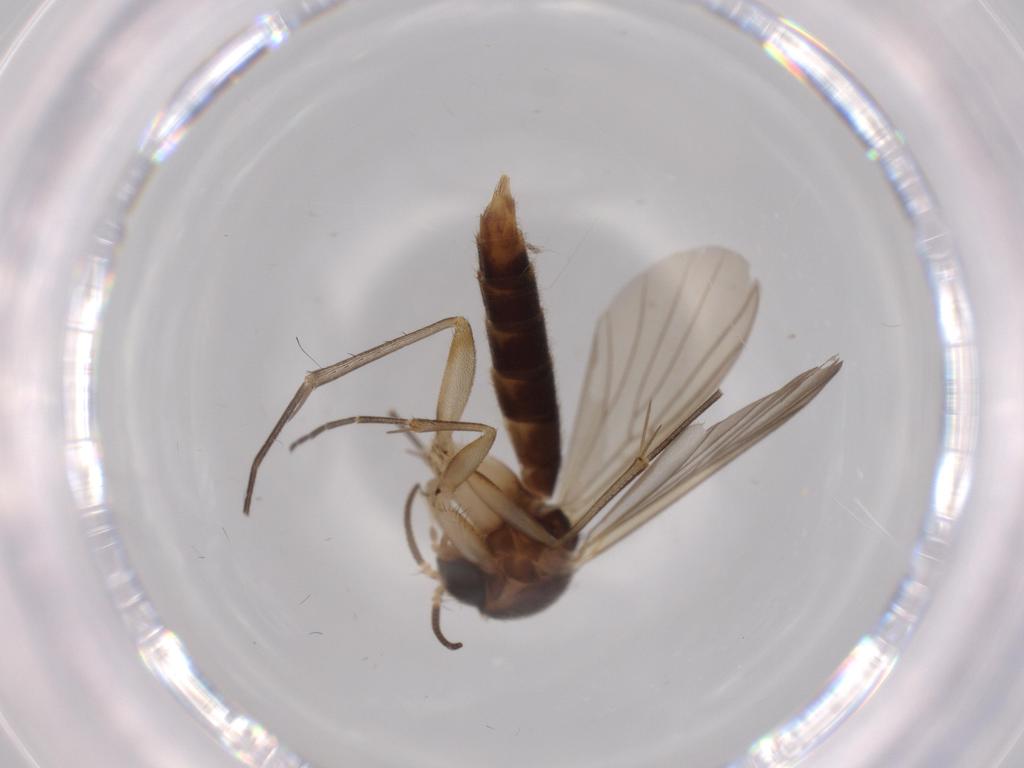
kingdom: Animalia
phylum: Arthropoda
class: Insecta
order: Diptera
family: Mycetophilidae
